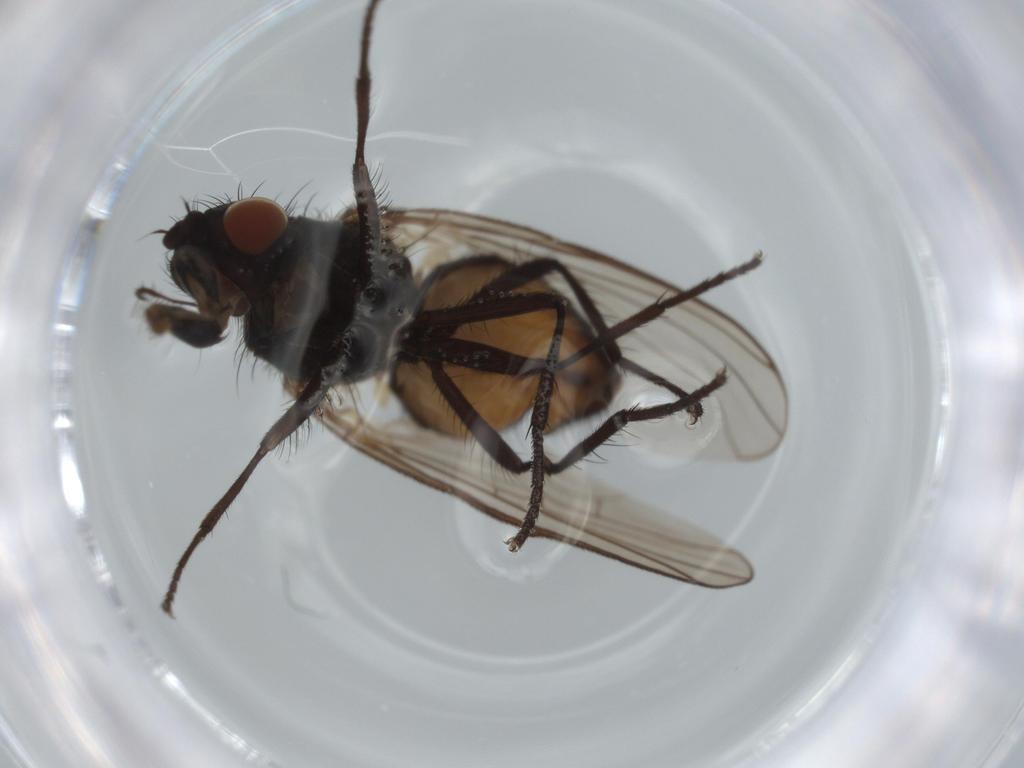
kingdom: Animalia
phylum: Arthropoda
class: Insecta
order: Diptera
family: Anthomyiidae
